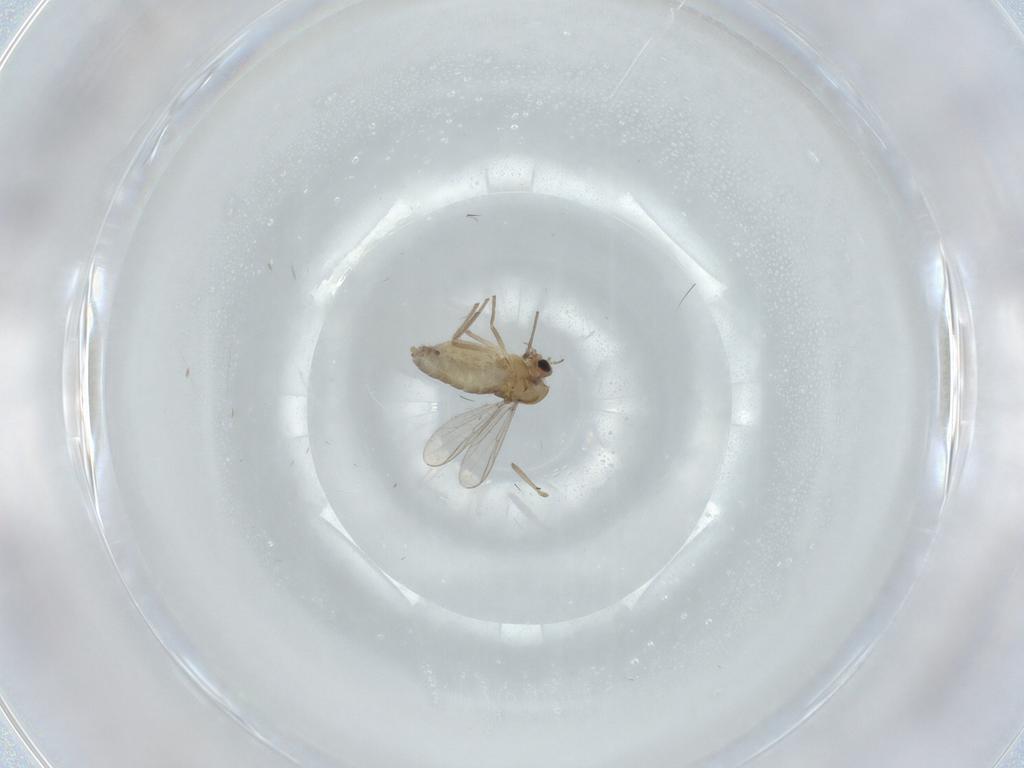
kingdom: Animalia
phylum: Arthropoda
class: Insecta
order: Diptera
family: Chironomidae
